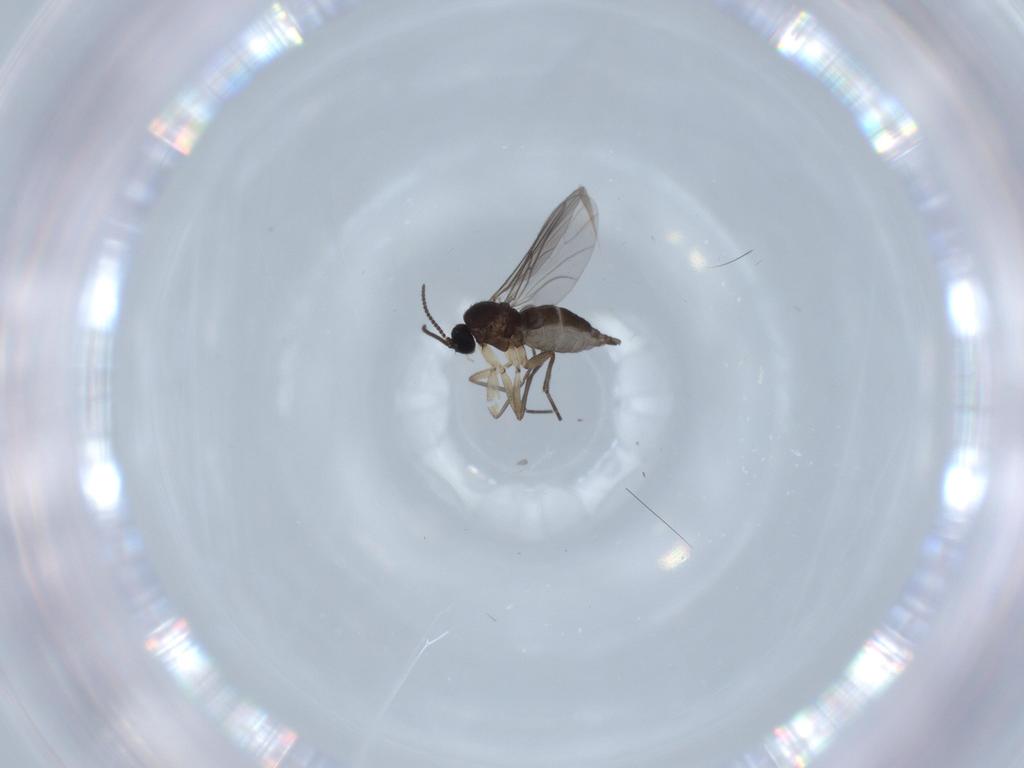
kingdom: Animalia
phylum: Arthropoda
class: Insecta
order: Diptera
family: Sciaridae
